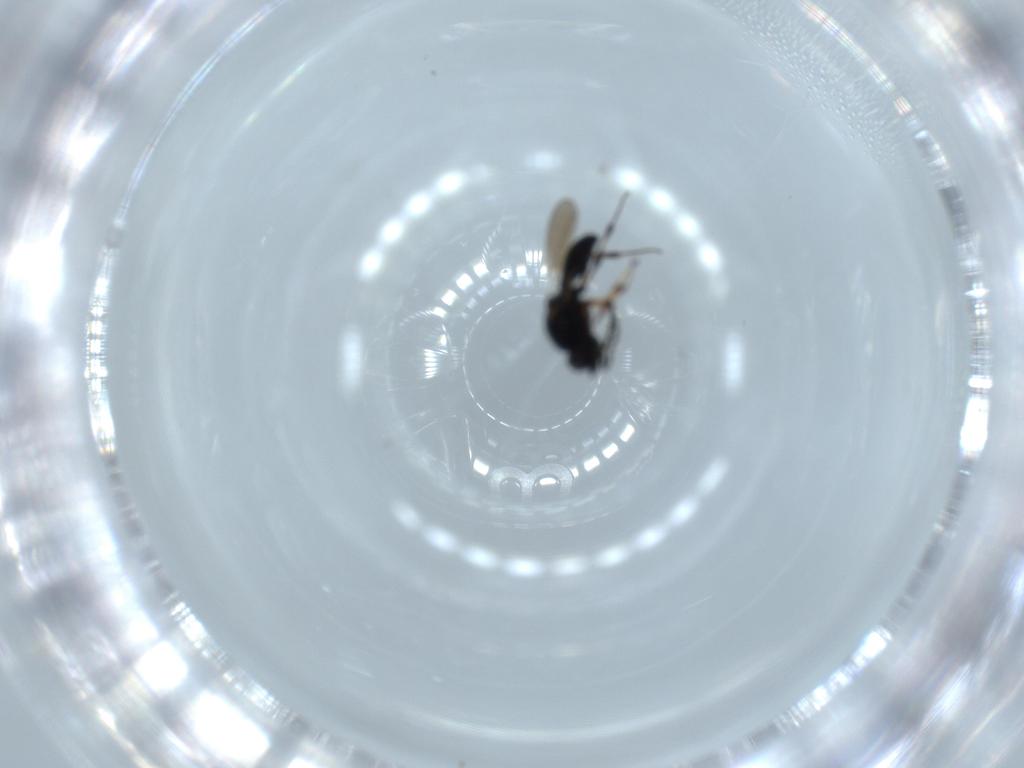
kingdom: Animalia
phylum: Arthropoda
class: Insecta
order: Hymenoptera
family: Platygastridae
